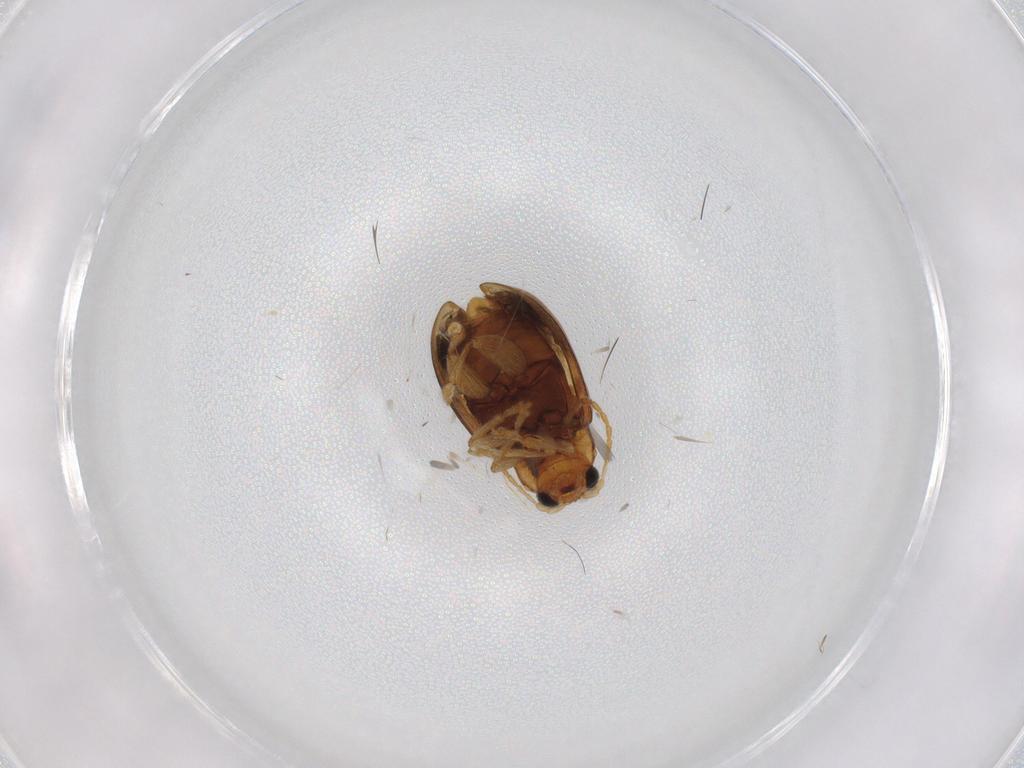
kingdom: Animalia
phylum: Arthropoda
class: Insecta
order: Coleoptera
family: Chrysomelidae
